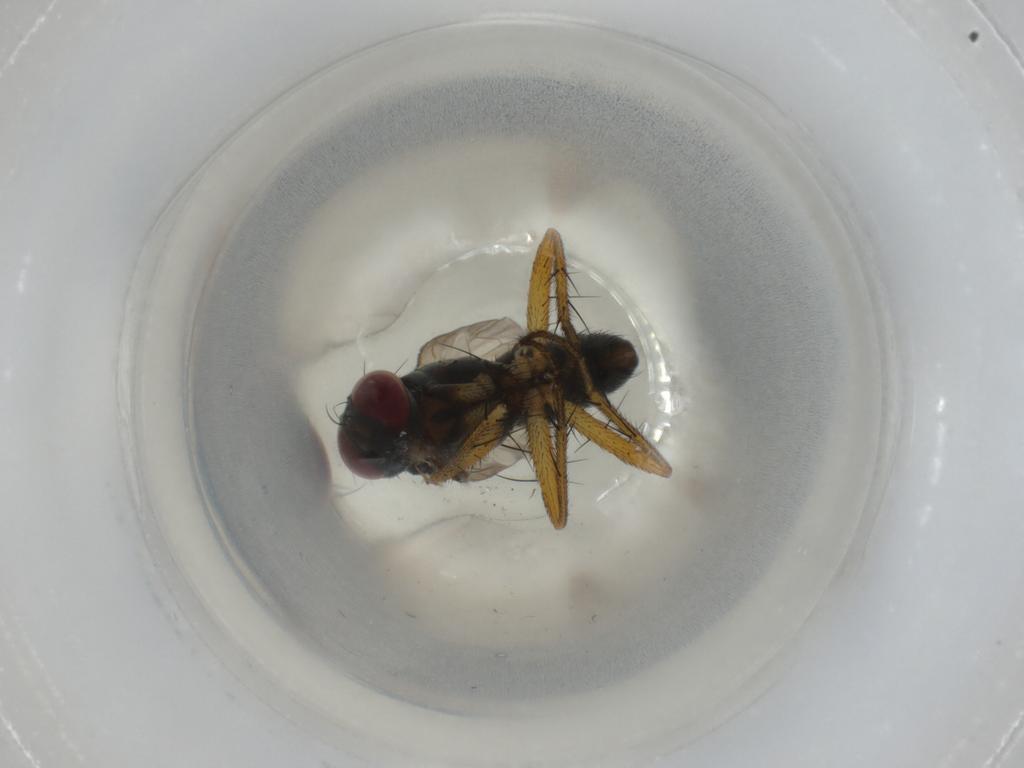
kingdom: Animalia
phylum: Arthropoda
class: Insecta
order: Diptera
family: Muscidae
